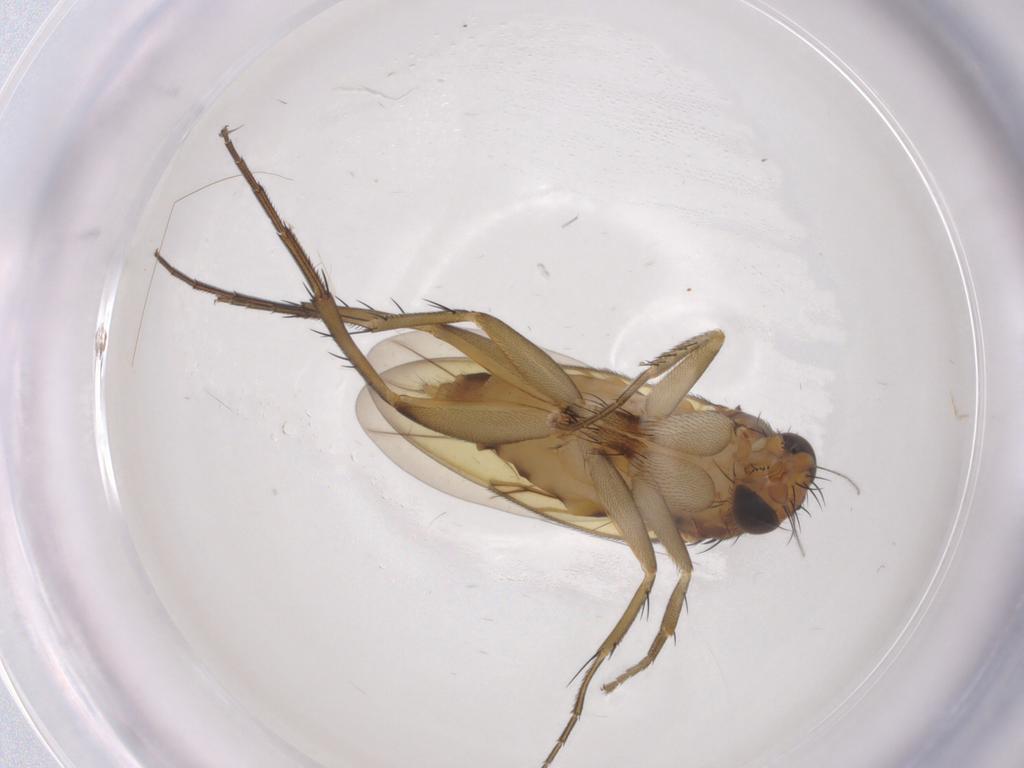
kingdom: Animalia
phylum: Arthropoda
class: Insecta
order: Diptera
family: Phoridae
